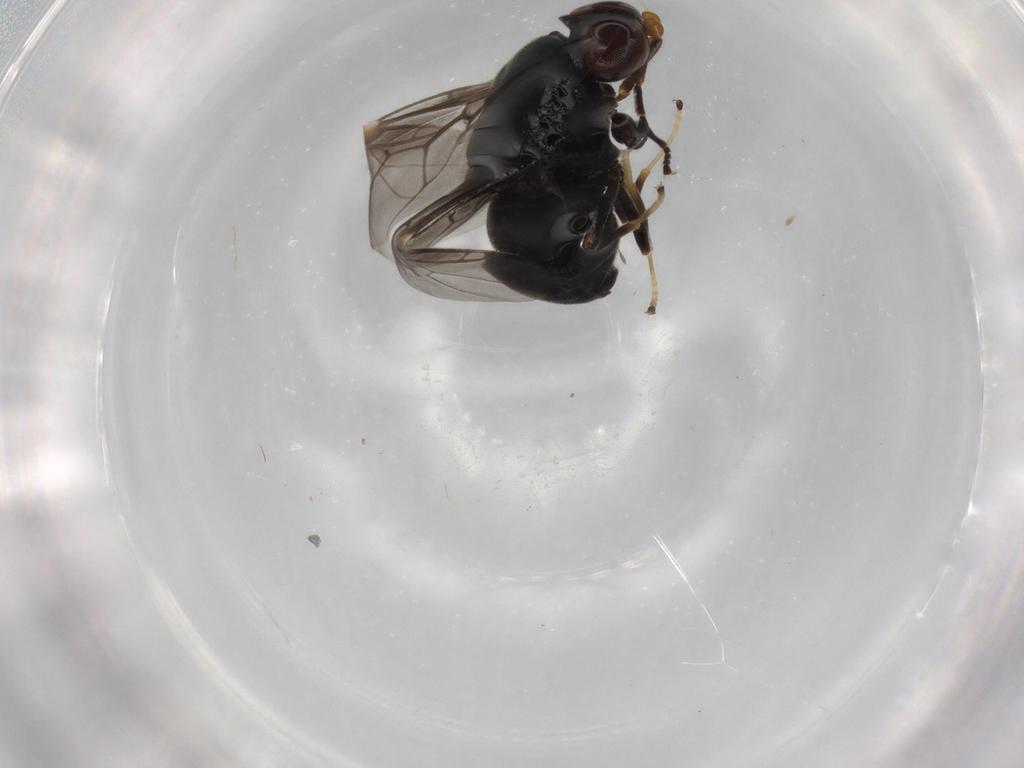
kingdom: Animalia
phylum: Arthropoda
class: Insecta
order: Diptera
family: Stratiomyidae
